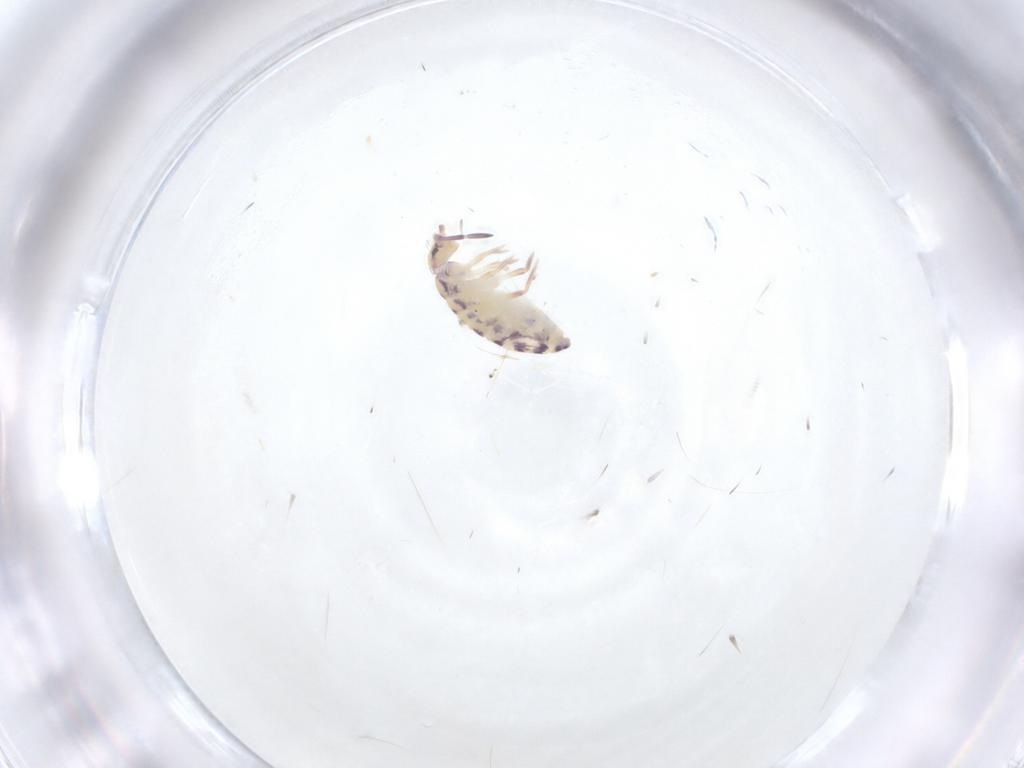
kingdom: Animalia
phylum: Arthropoda
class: Collembola
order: Entomobryomorpha
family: Entomobryidae
